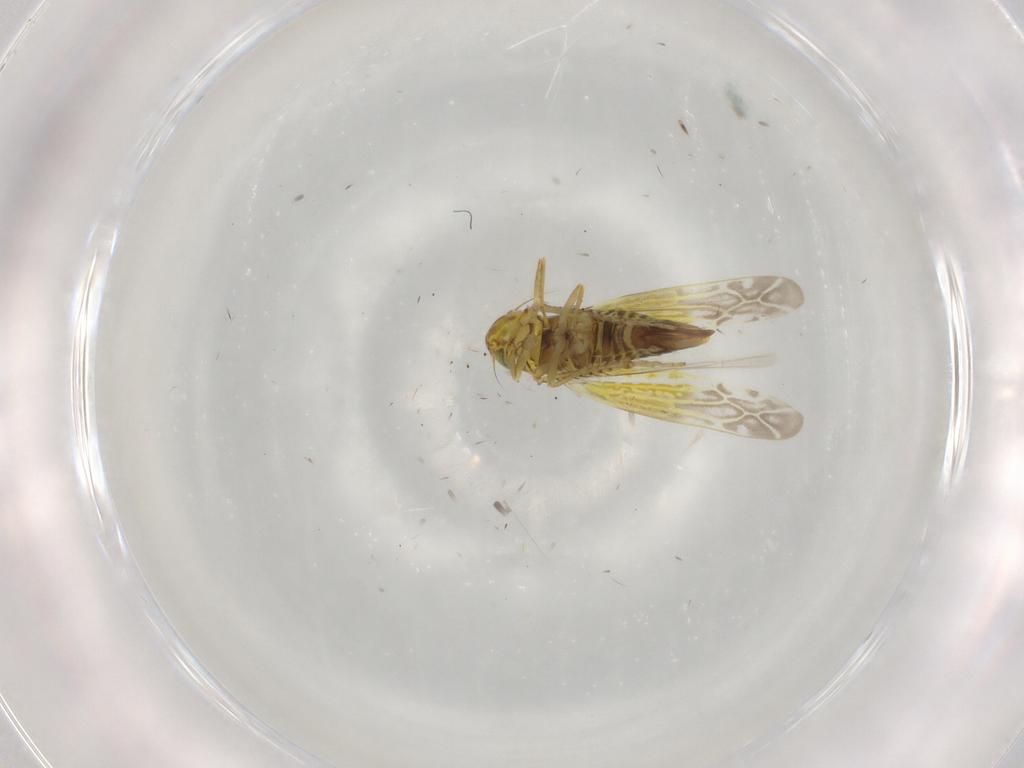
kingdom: Animalia
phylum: Arthropoda
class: Insecta
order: Hemiptera
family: Cicadellidae
